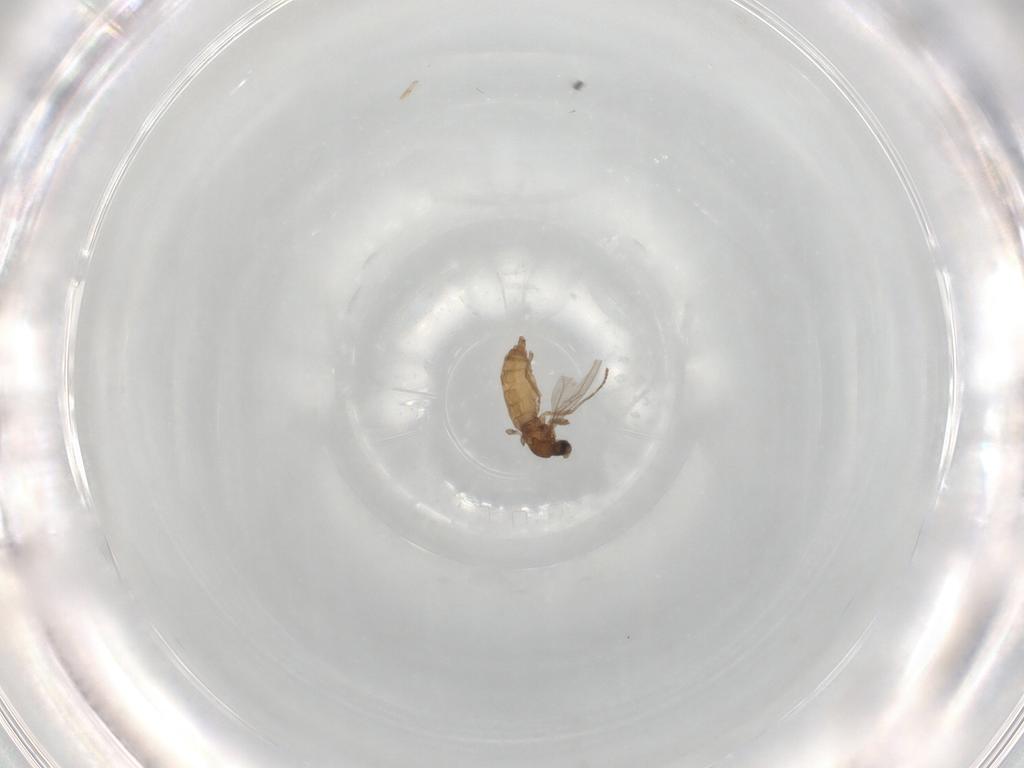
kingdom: Animalia
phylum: Arthropoda
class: Insecta
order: Diptera
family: Sciaridae
